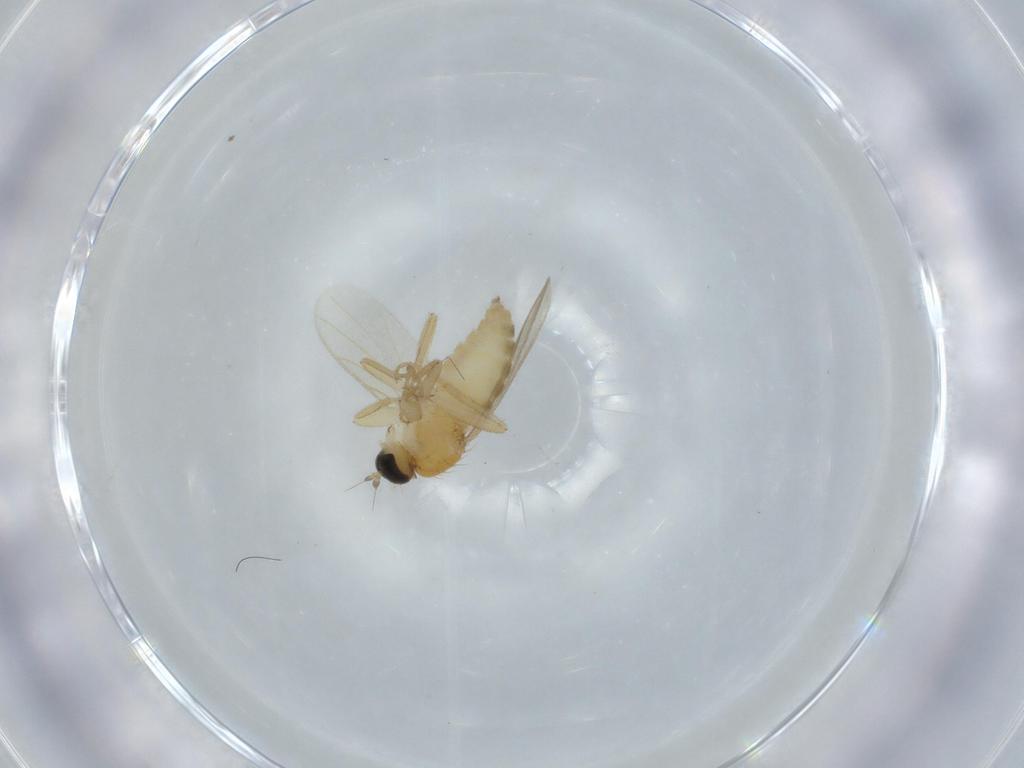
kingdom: Animalia
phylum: Arthropoda
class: Insecta
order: Diptera
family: Hybotidae
